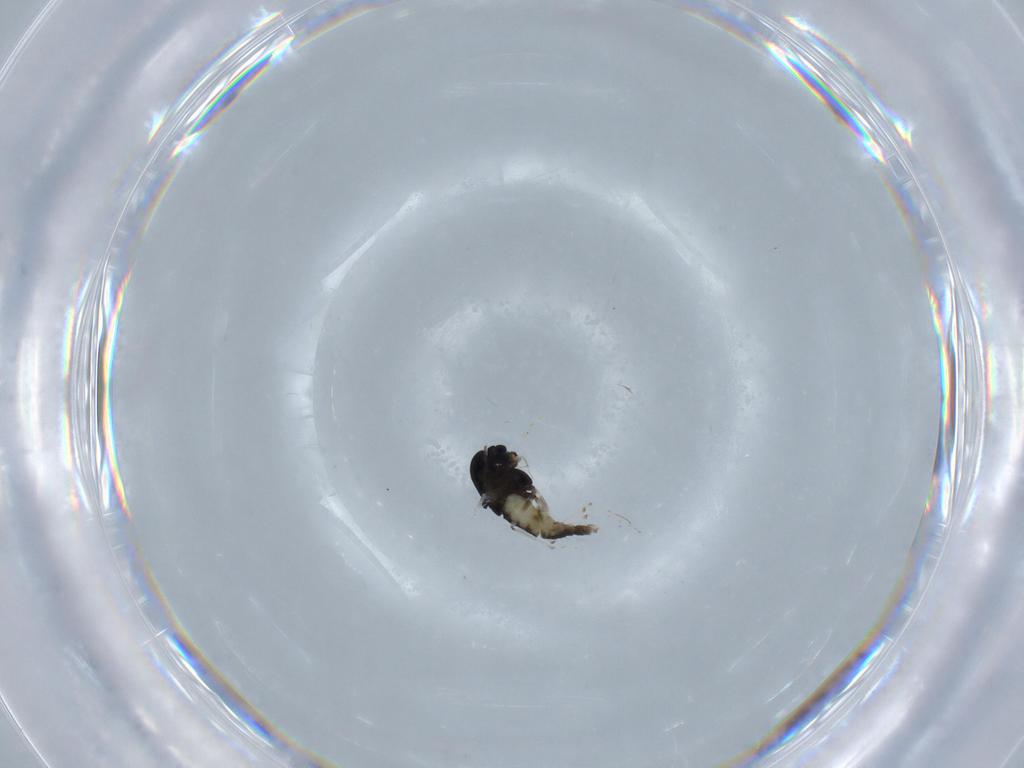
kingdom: Animalia
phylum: Arthropoda
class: Insecta
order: Diptera
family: Chironomidae
